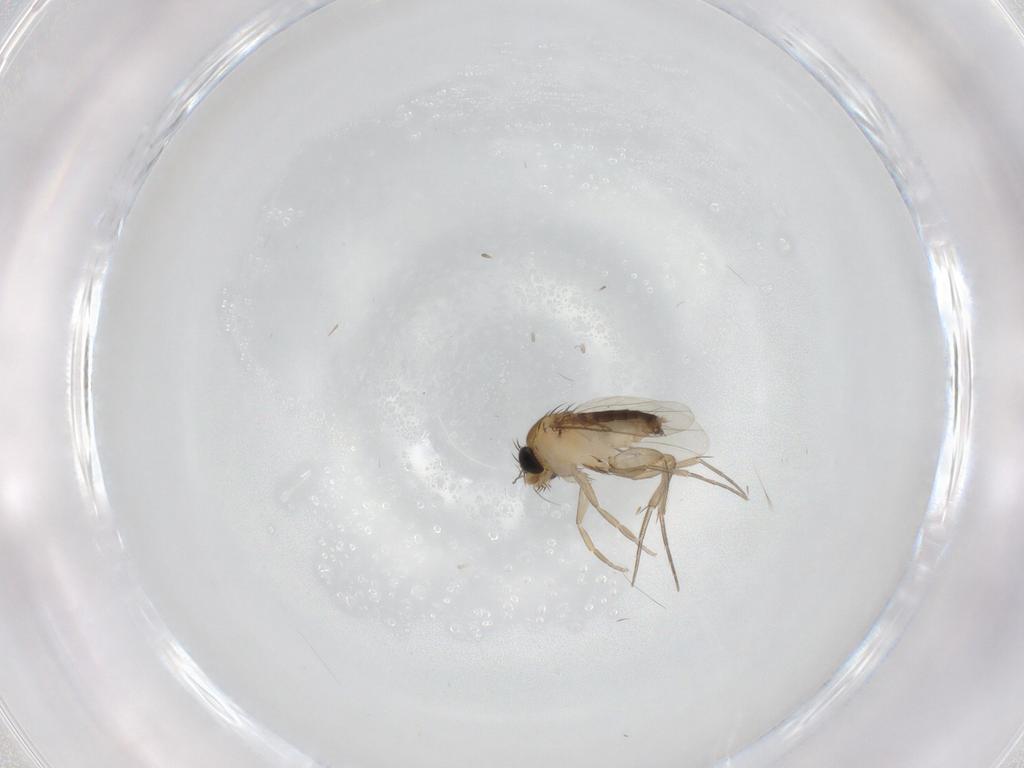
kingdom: Animalia
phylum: Arthropoda
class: Insecta
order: Diptera
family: Phoridae
